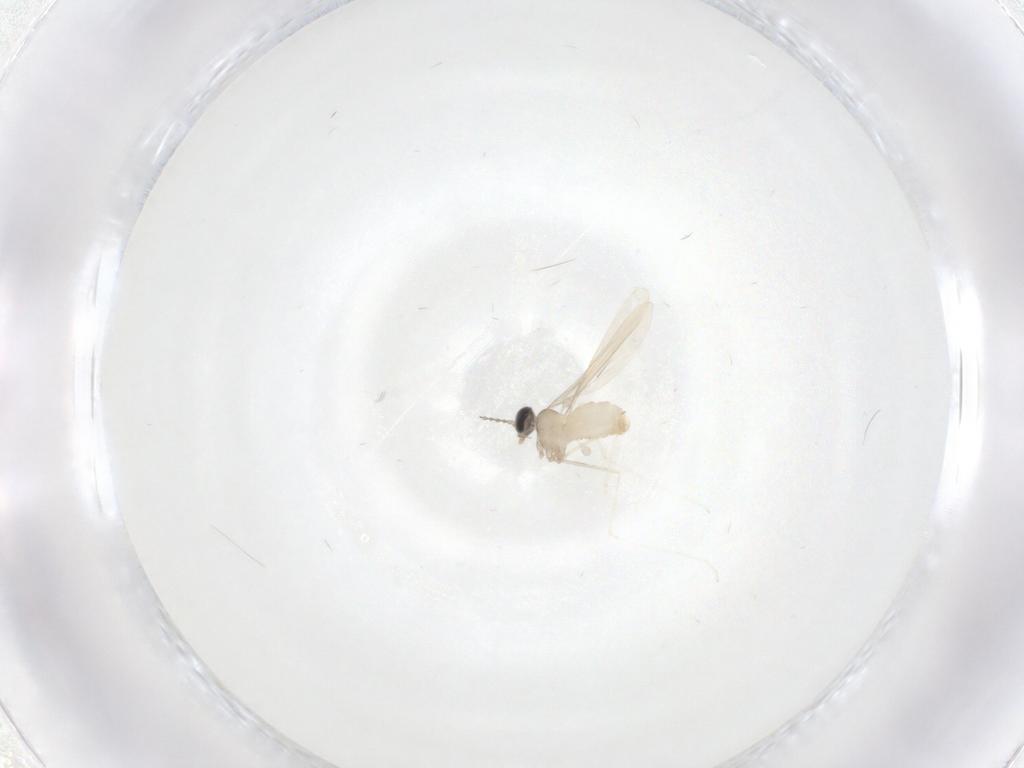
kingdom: Animalia
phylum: Arthropoda
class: Insecta
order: Diptera
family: Cecidomyiidae
